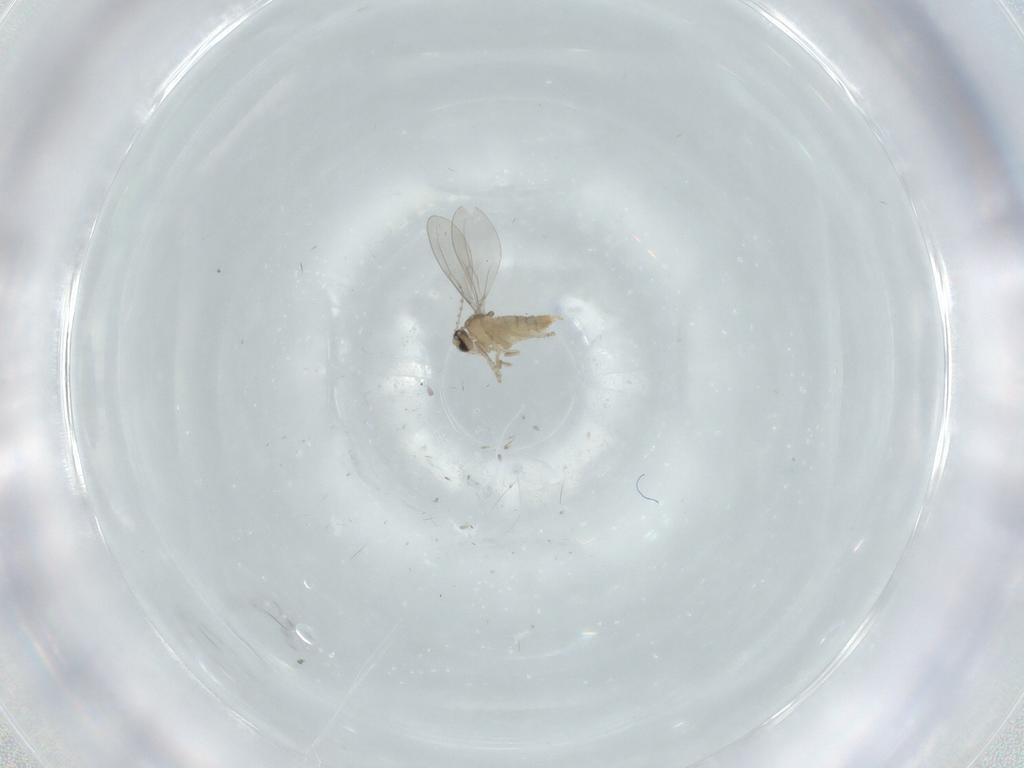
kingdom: Animalia
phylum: Arthropoda
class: Insecta
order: Diptera
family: Cecidomyiidae
